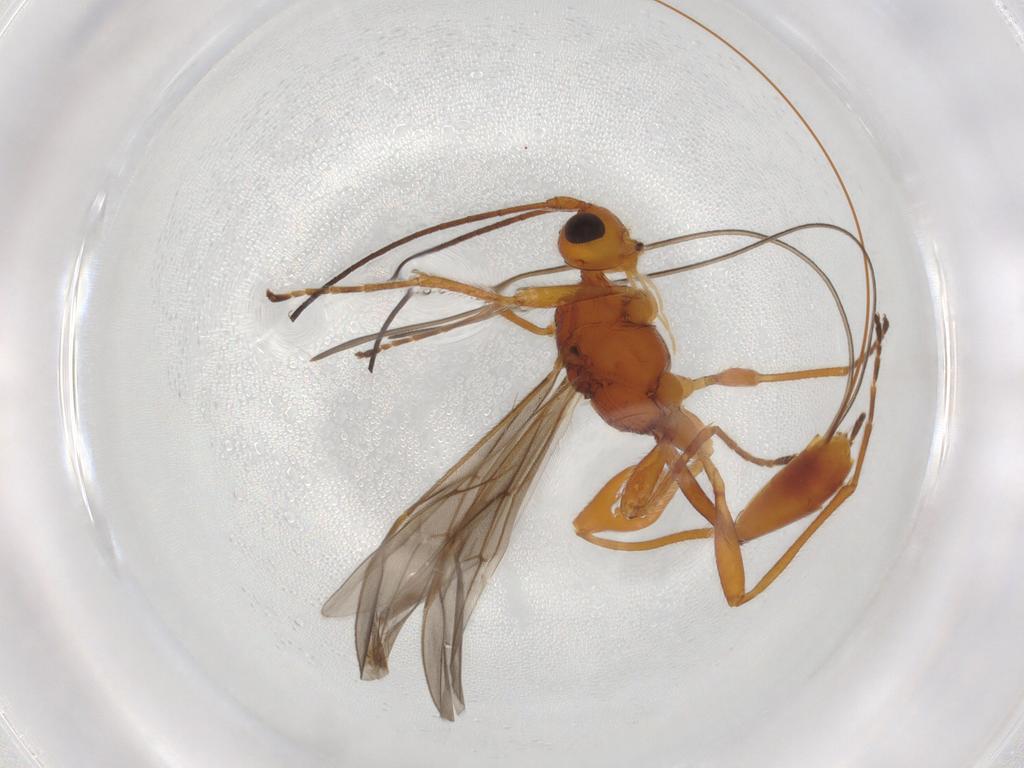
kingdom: Animalia
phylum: Arthropoda
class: Insecta
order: Hymenoptera
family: Braconidae
